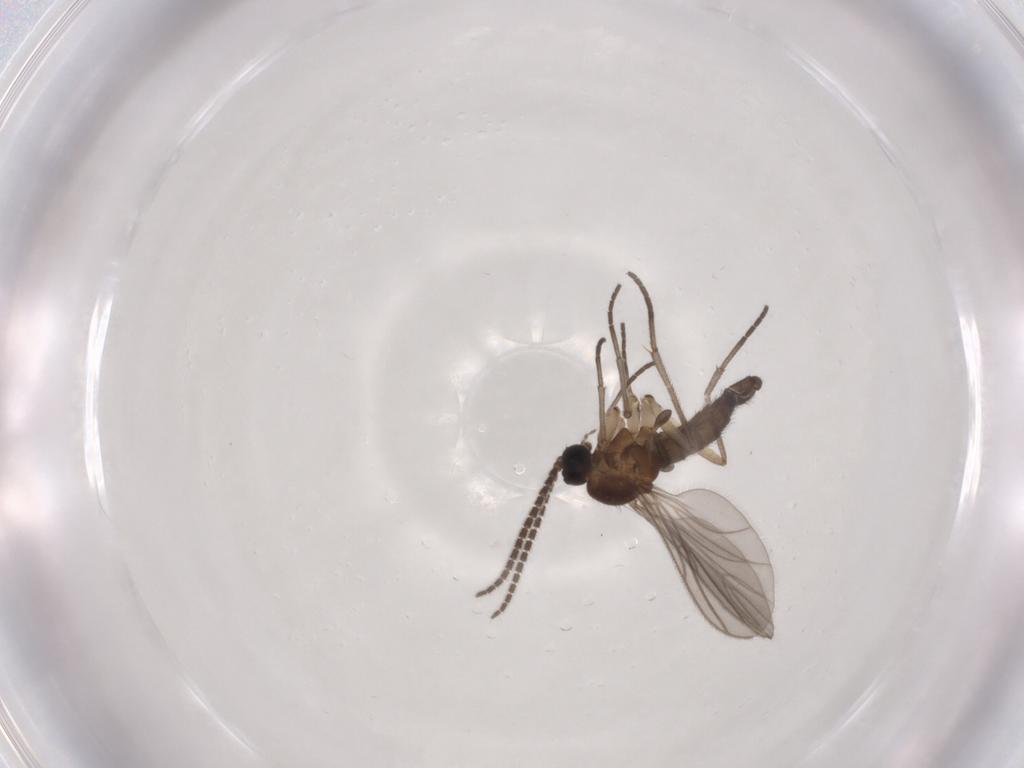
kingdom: Animalia
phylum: Arthropoda
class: Insecta
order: Diptera
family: Sciaridae
